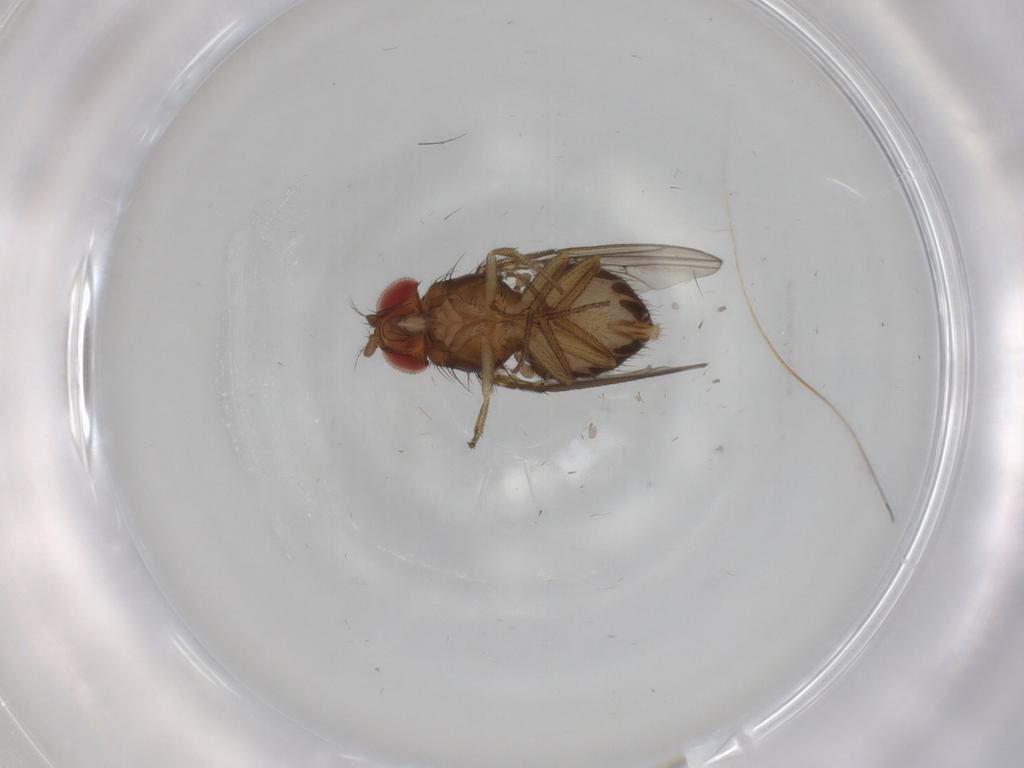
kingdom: Animalia
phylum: Arthropoda
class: Insecta
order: Diptera
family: Drosophilidae
